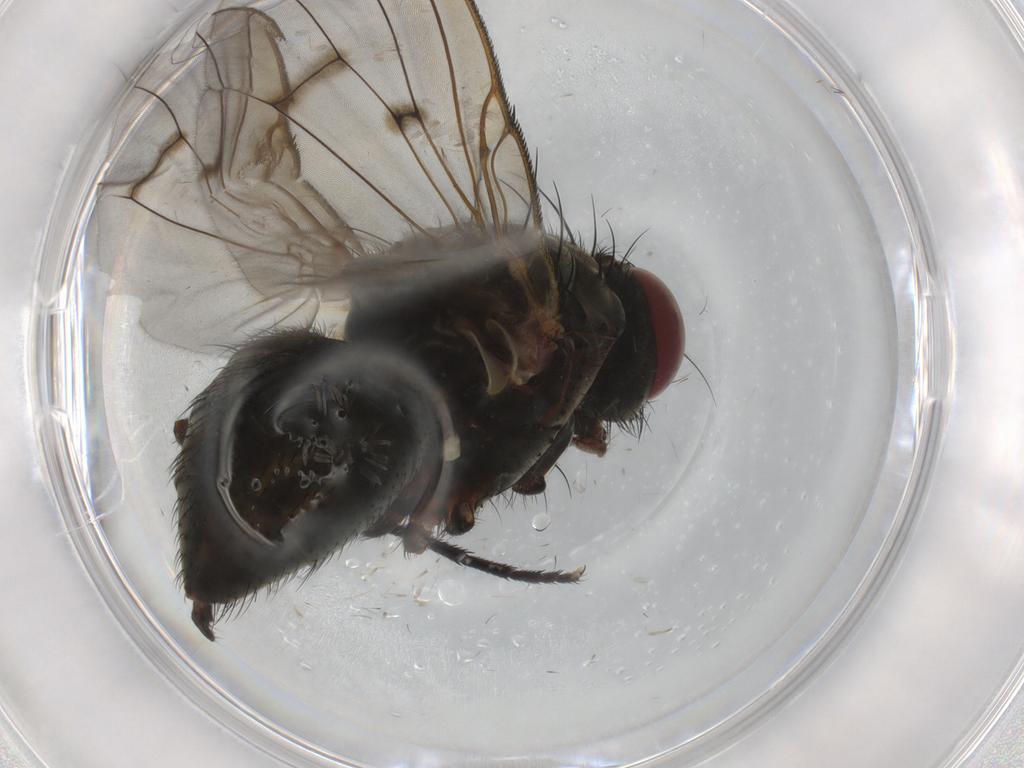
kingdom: Animalia
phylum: Arthropoda
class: Insecta
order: Diptera
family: Muscidae
